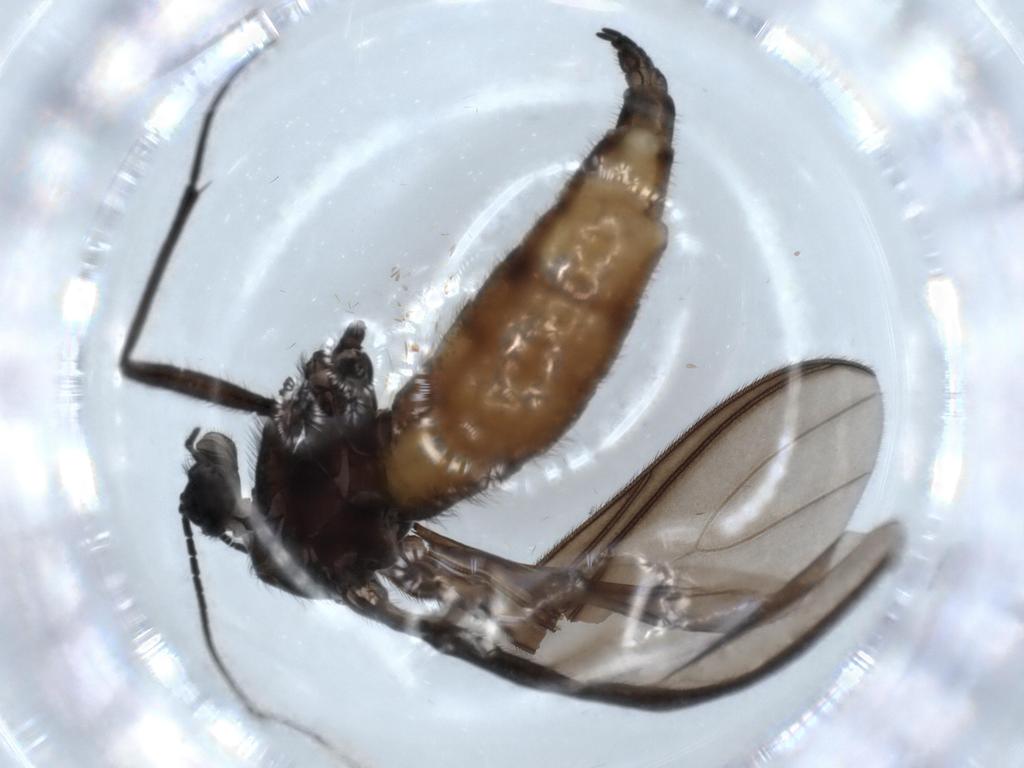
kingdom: Animalia
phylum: Arthropoda
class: Insecta
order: Diptera
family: Chironomidae
